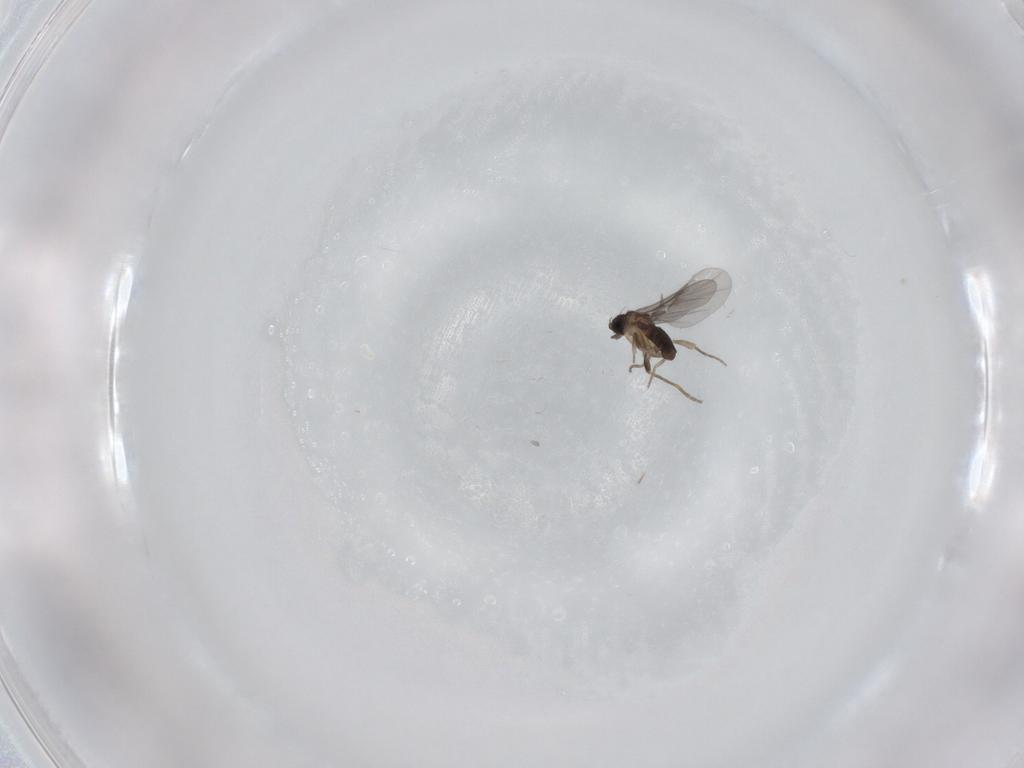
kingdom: Animalia
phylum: Arthropoda
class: Insecta
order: Diptera
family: Cecidomyiidae
